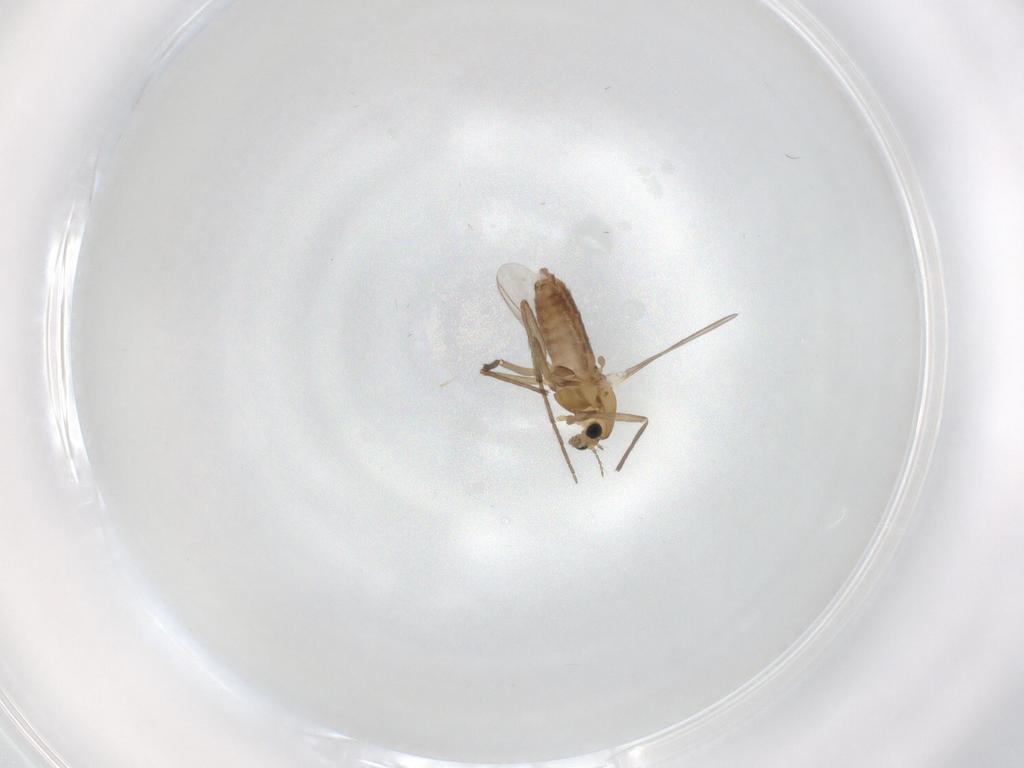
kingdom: Animalia
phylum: Arthropoda
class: Insecta
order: Diptera
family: Chironomidae
